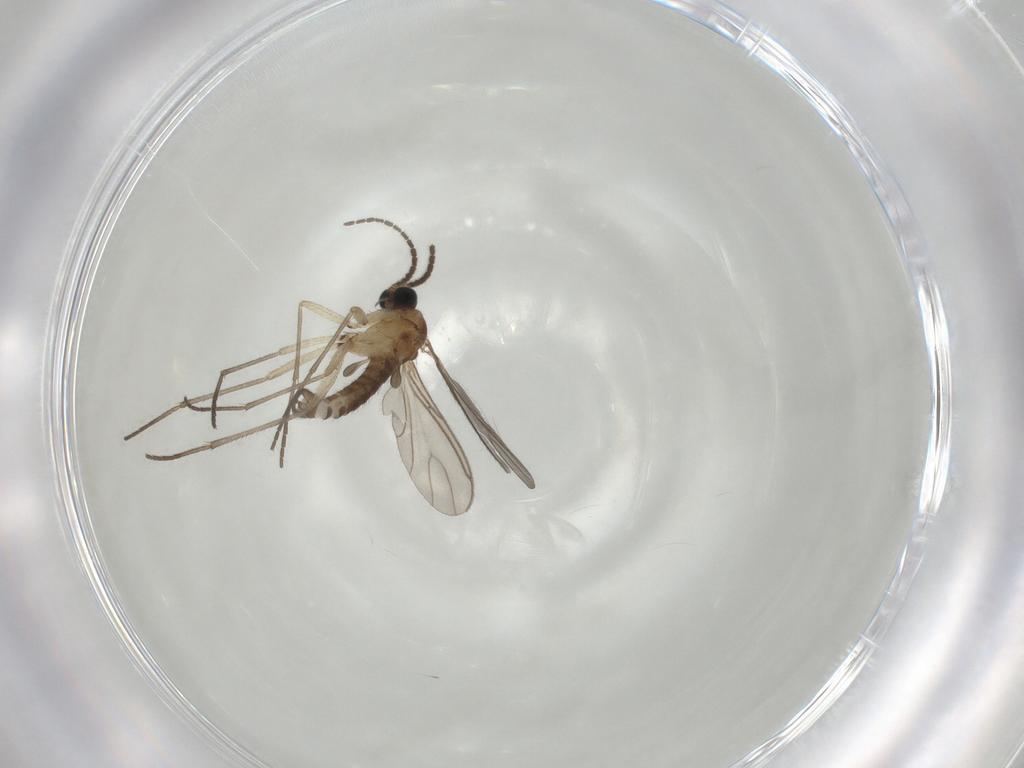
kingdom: Animalia
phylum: Arthropoda
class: Insecta
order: Diptera
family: Sciaridae
